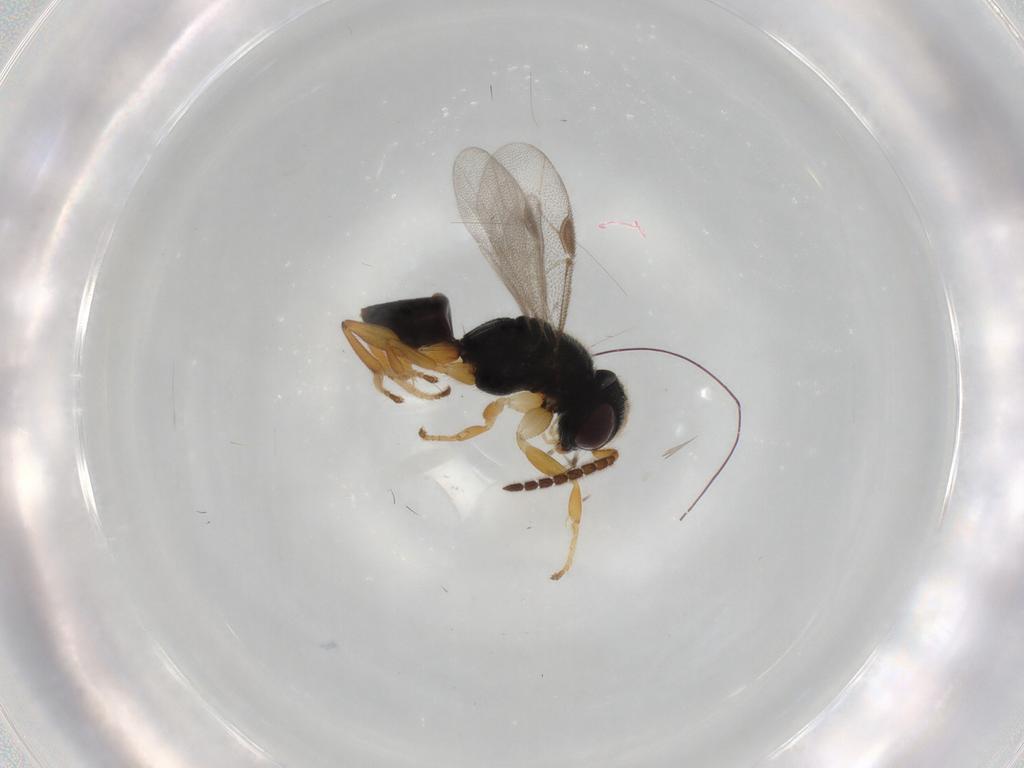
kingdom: Animalia
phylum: Arthropoda
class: Insecta
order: Hymenoptera
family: Dryinidae
